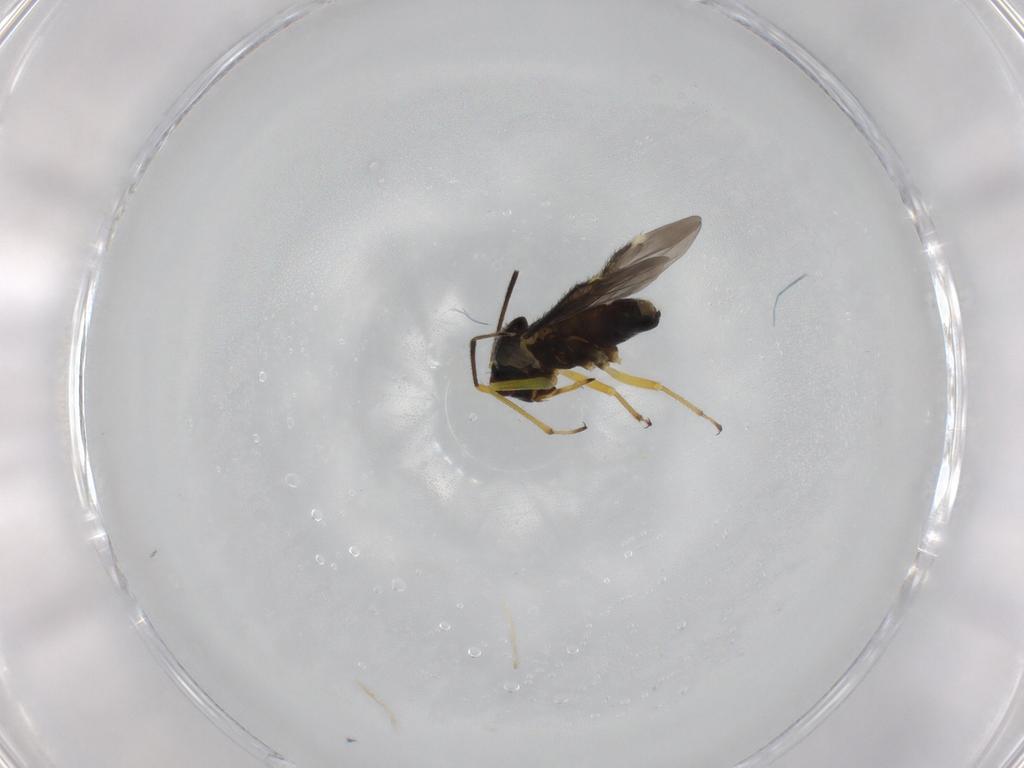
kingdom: Animalia
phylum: Arthropoda
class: Insecta
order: Hemiptera
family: Miridae
